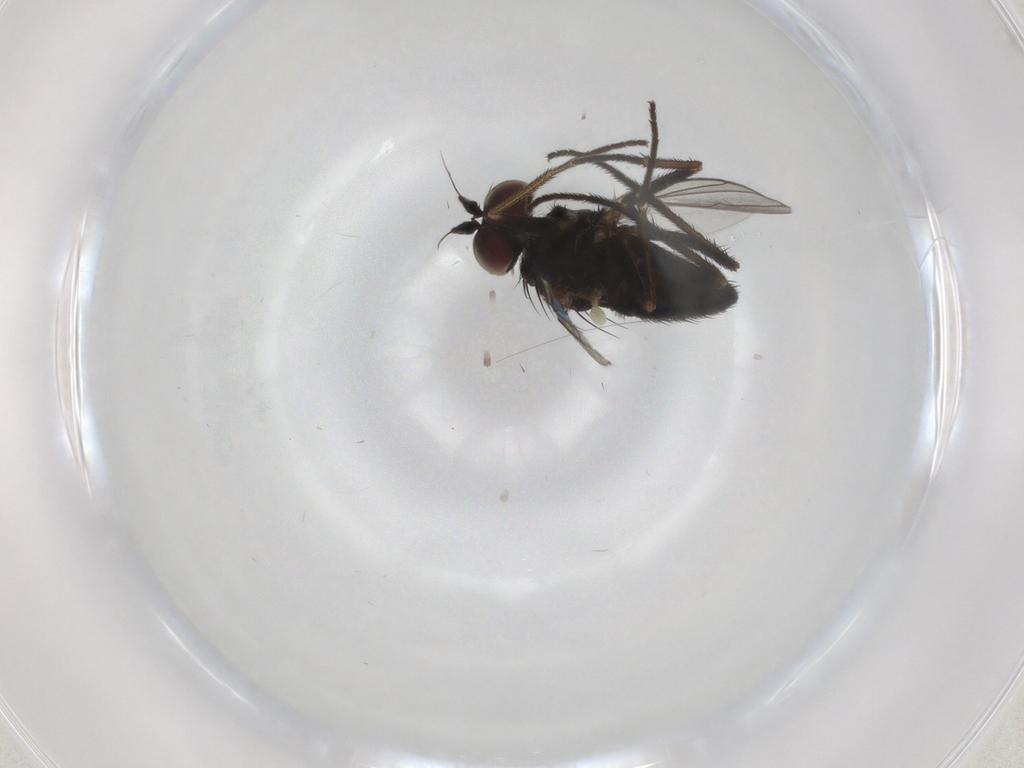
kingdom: Animalia
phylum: Arthropoda
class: Insecta
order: Diptera
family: Dolichopodidae
